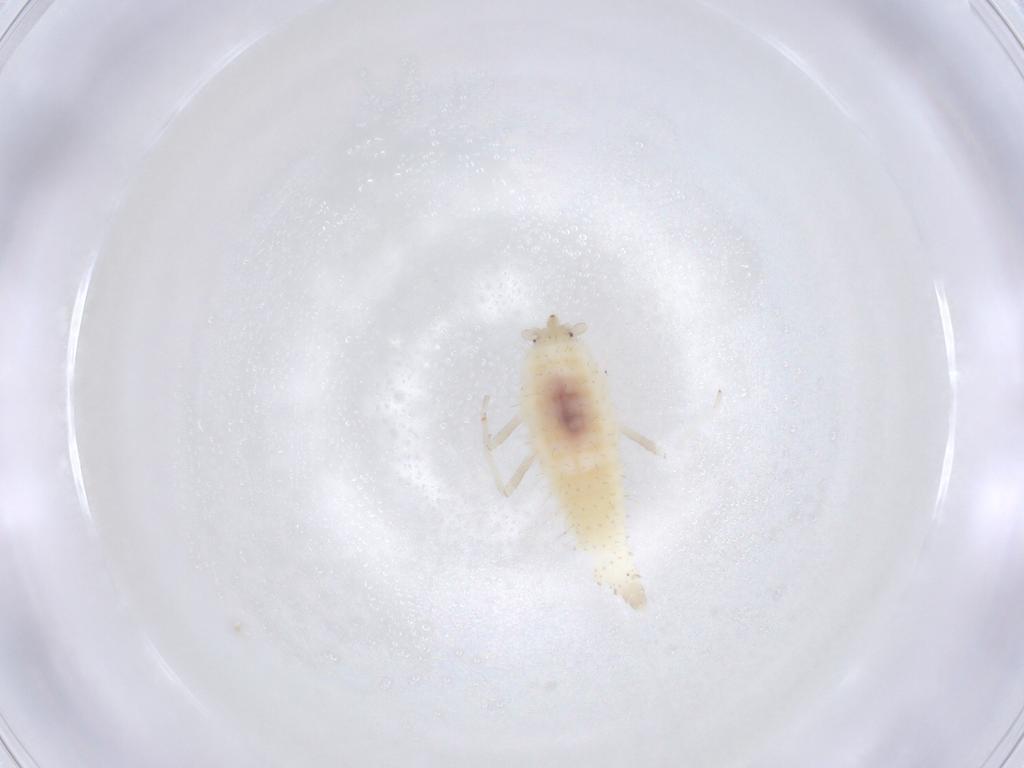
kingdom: Animalia
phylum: Arthropoda
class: Insecta
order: Neuroptera
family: Coniopterygidae
